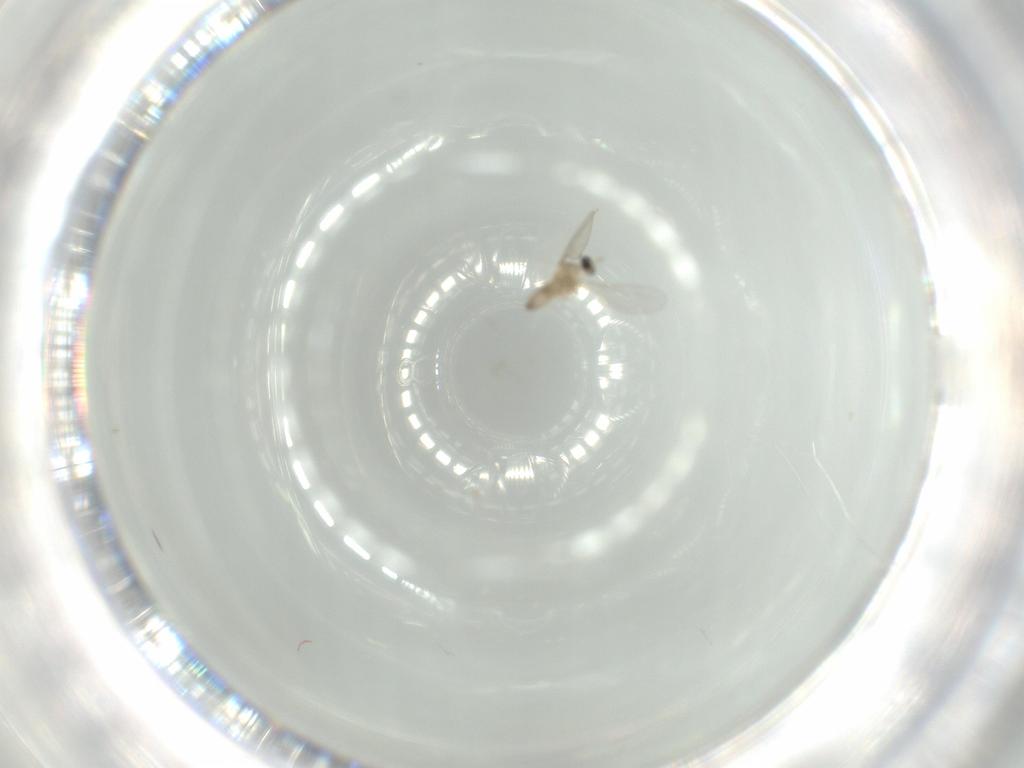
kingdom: Animalia
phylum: Arthropoda
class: Insecta
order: Diptera
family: Cecidomyiidae
